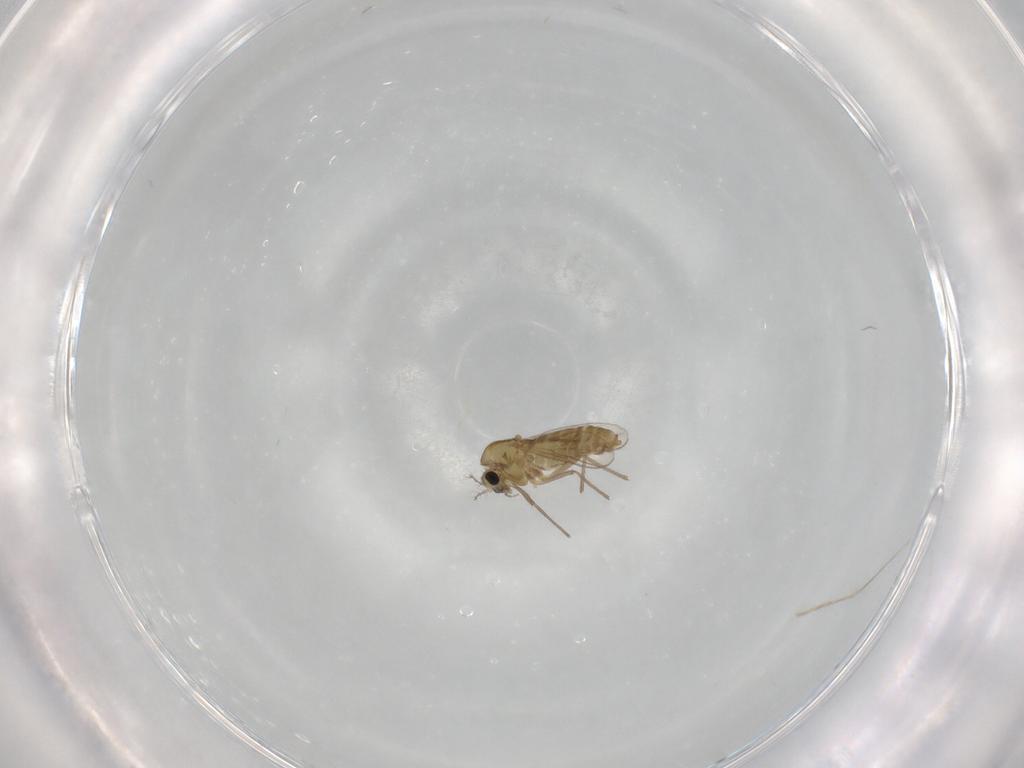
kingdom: Animalia
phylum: Arthropoda
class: Insecta
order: Diptera
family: Chironomidae
